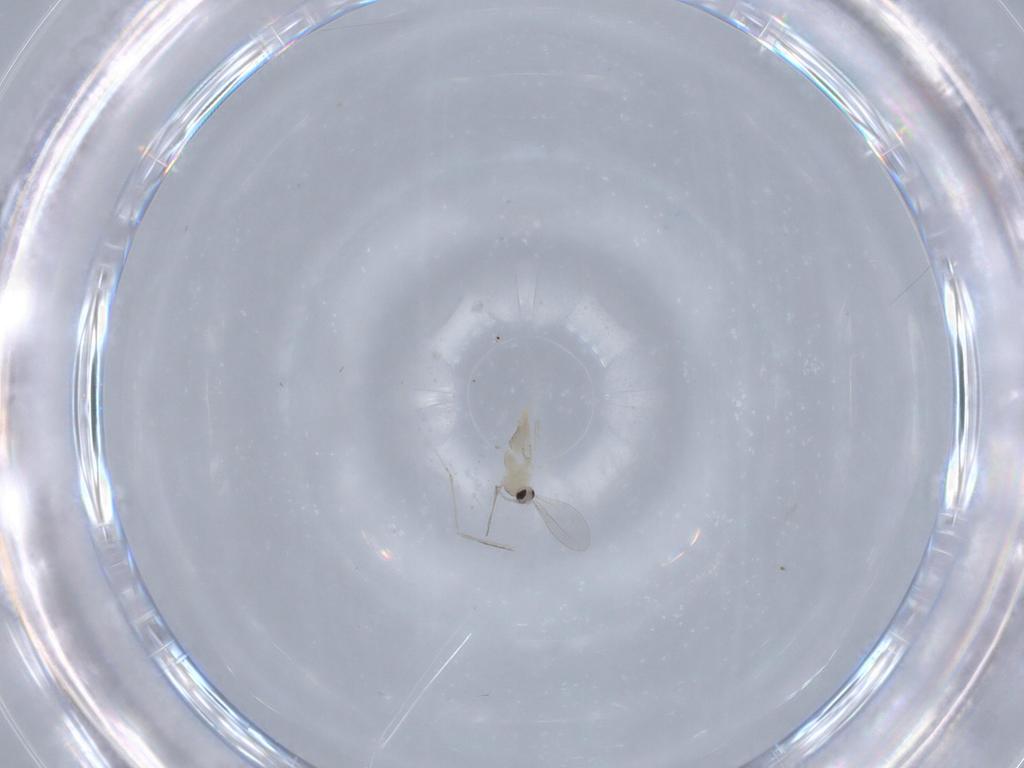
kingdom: Animalia
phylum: Arthropoda
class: Insecta
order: Diptera
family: Cecidomyiidae
